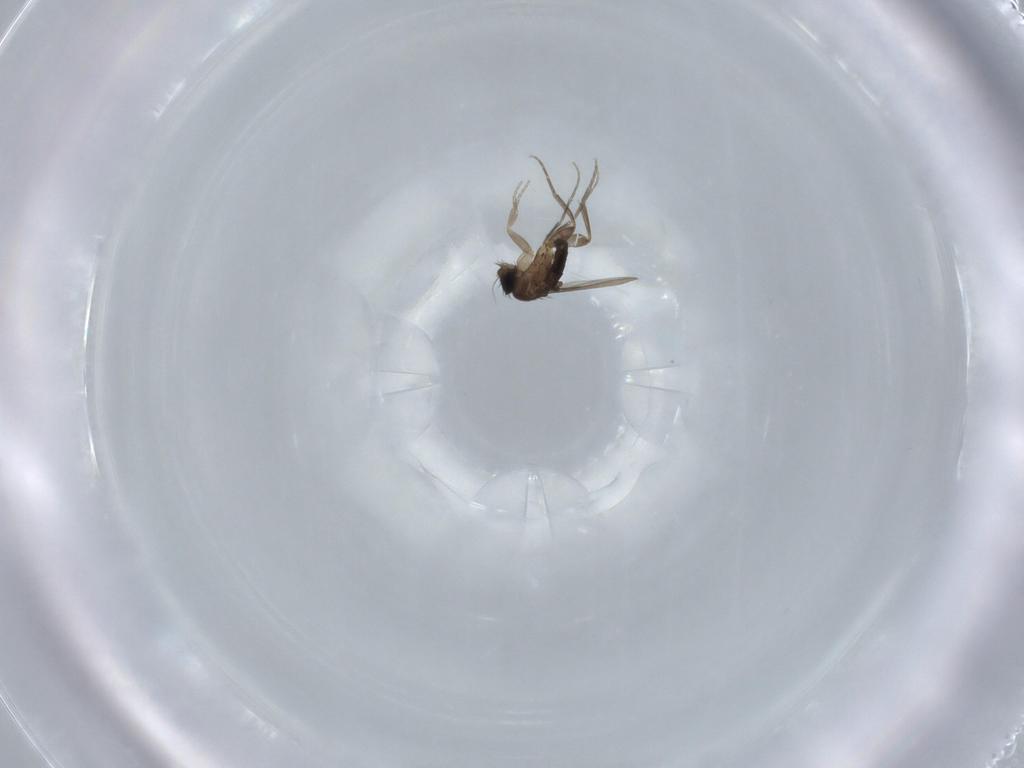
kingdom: Animalia
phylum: Arthropoda
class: Insecta
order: Diptera
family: Phoridae
